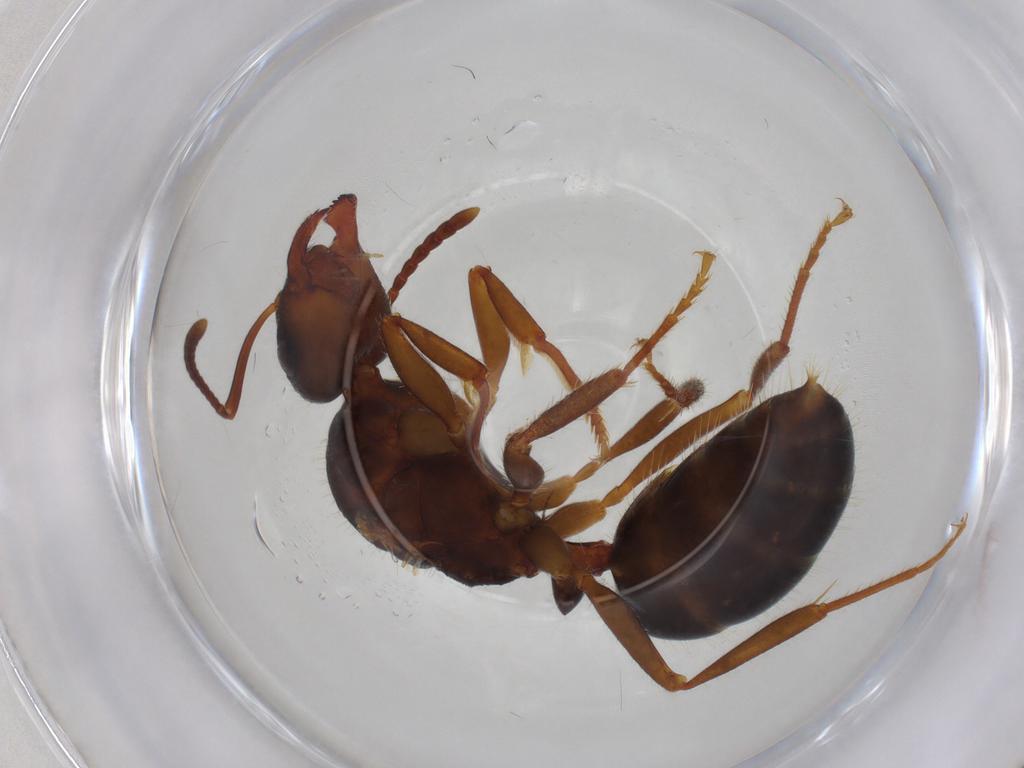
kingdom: Animalia
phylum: Arthropoda
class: Insecta
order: Hymenoptera
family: Formicidae
